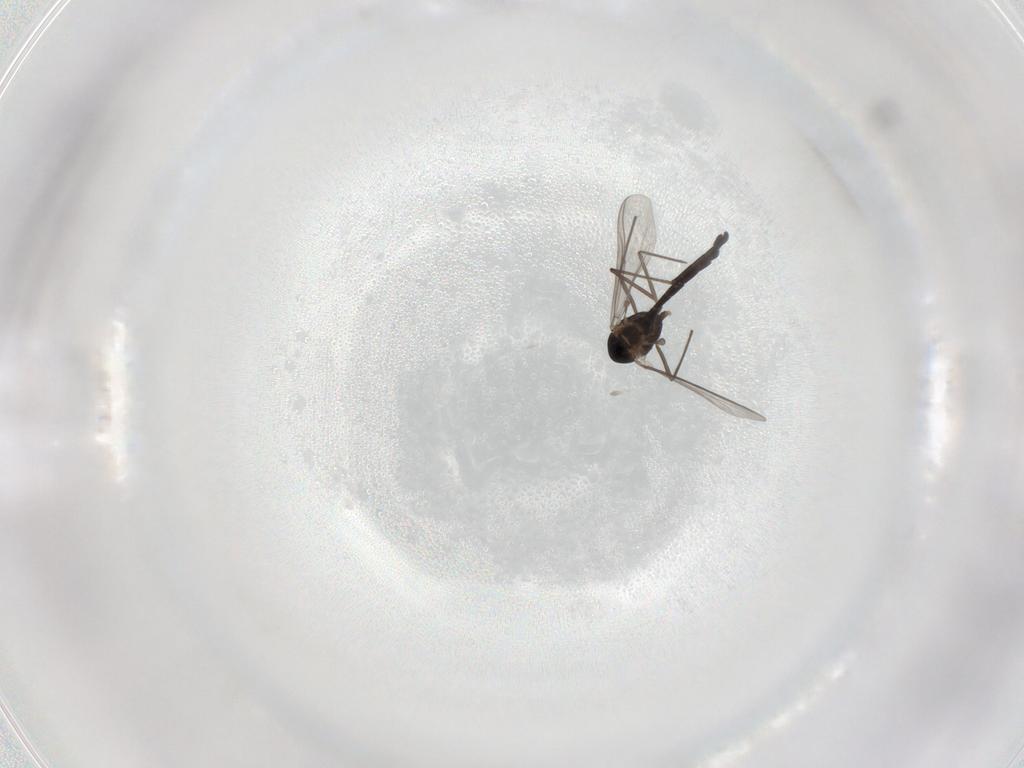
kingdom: Animalia
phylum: Arthropoda
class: Insecta
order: Diptera
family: Chironomidae
